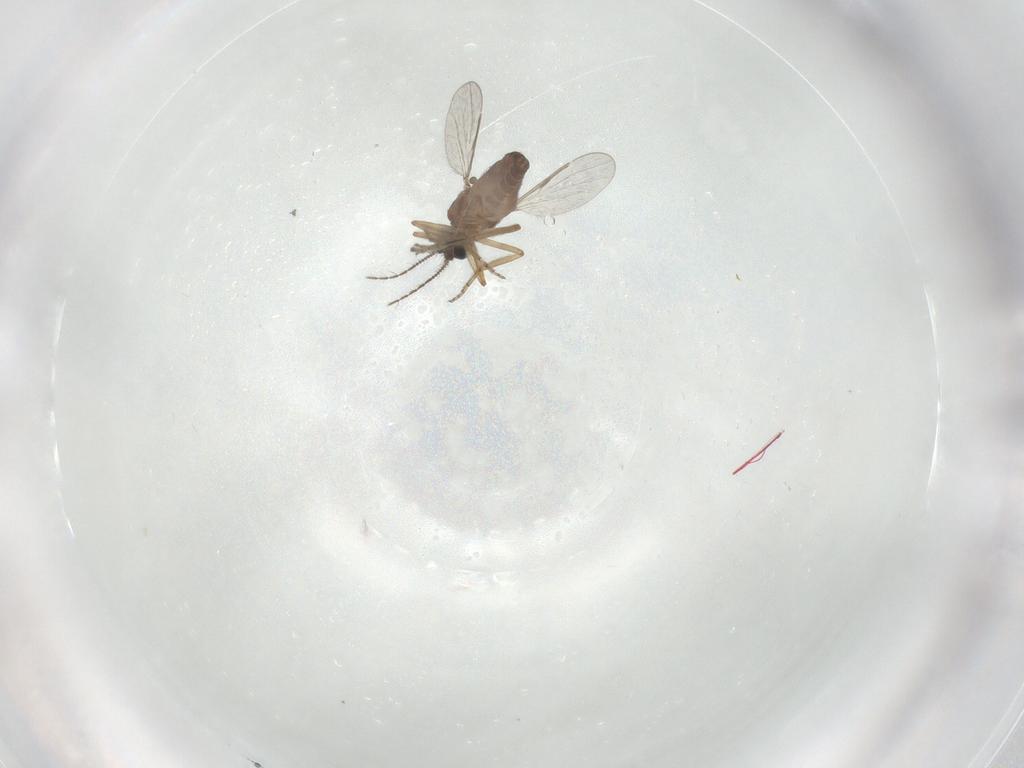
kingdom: Animalia
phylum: Arthropoda
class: Insecta
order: Diptera
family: Ceratopogonidae
